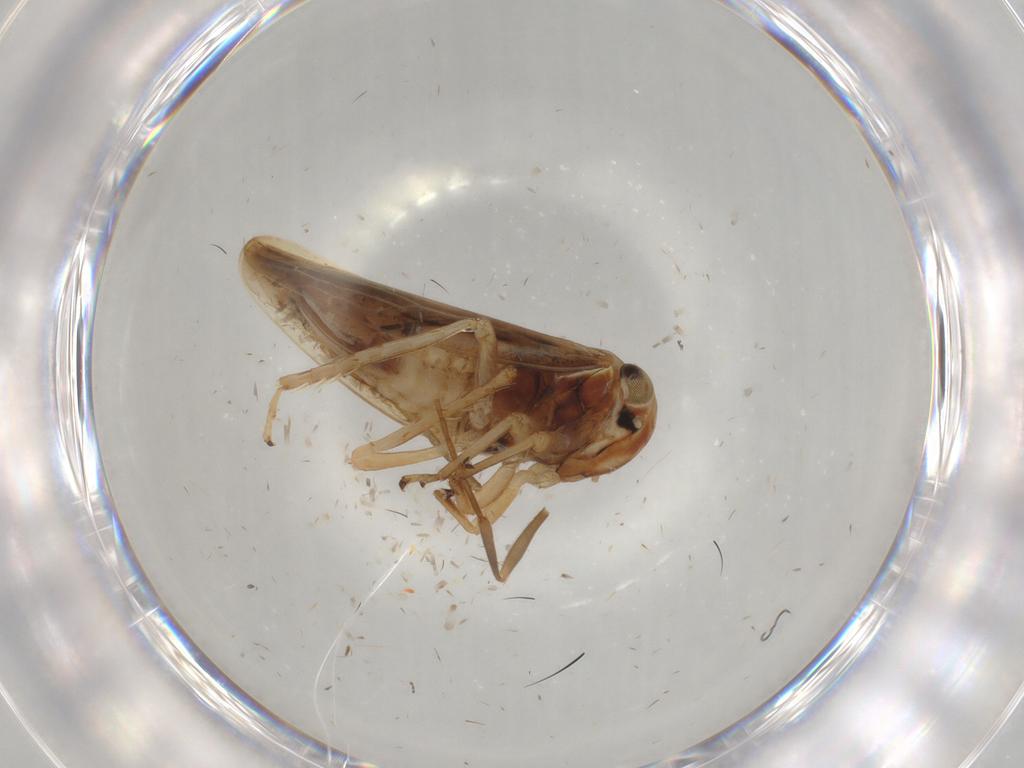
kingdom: Animalia
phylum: Arthropoda
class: Insecta
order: Hemiptera
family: Cicadellidae
